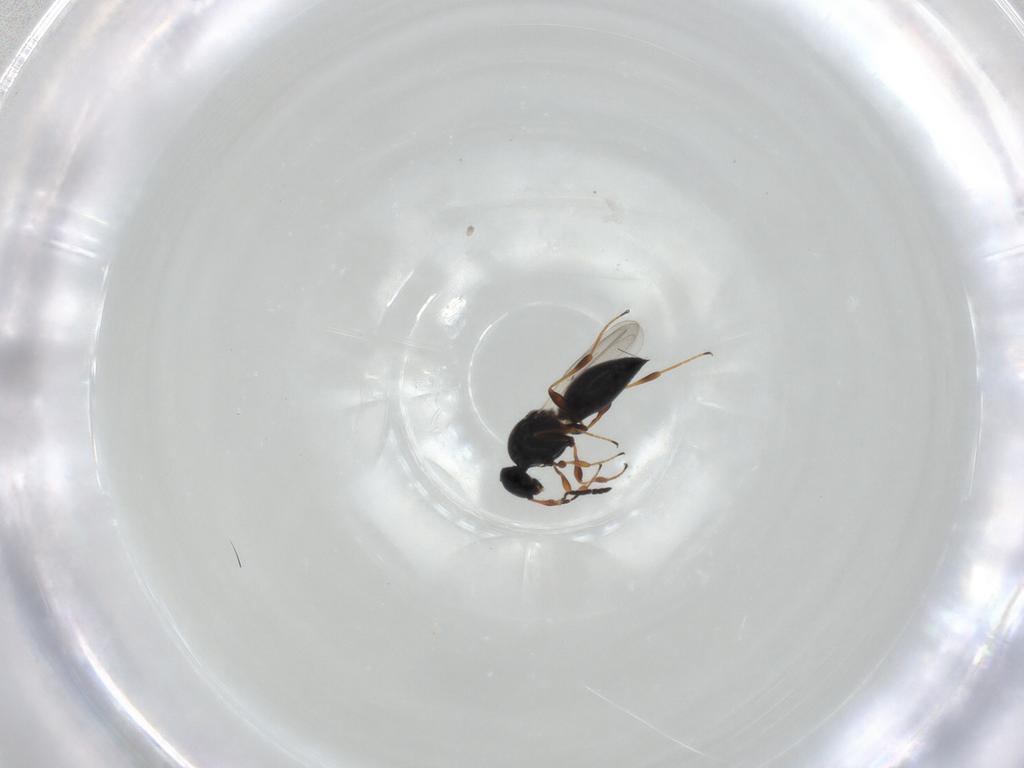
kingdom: Animalia
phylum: Arthropoda
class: Insecta
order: Hymenoptera
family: Platygastridae
